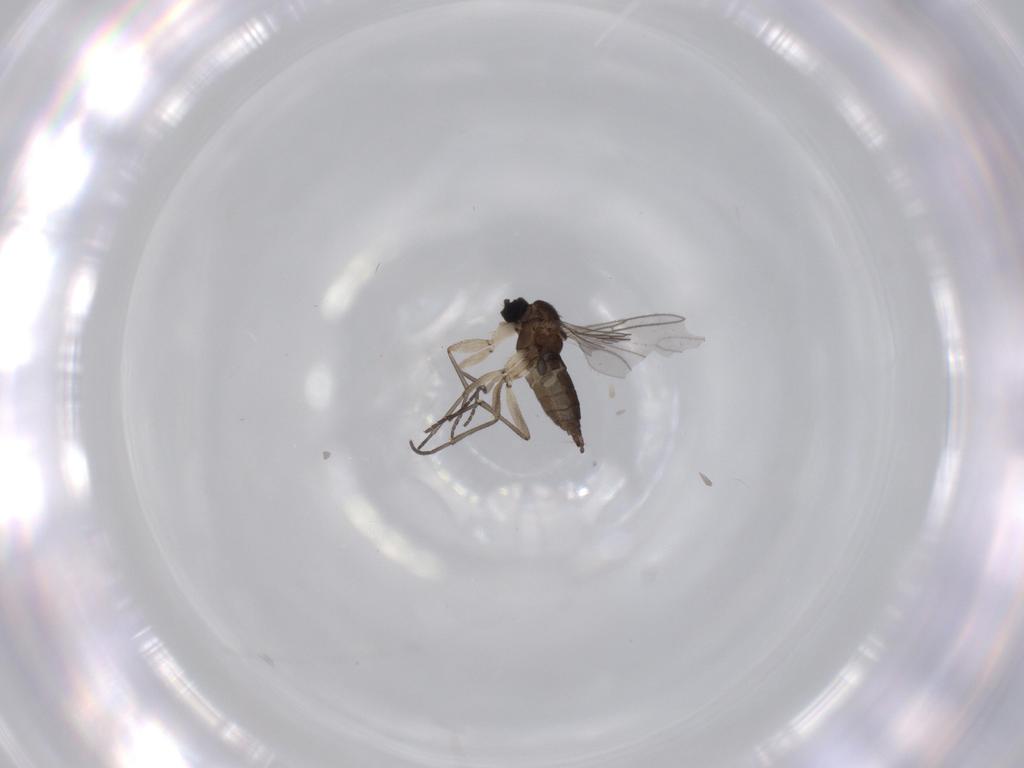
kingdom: Animalia
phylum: Arthropoda
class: Insecta
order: Diptera
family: Sciaridae
